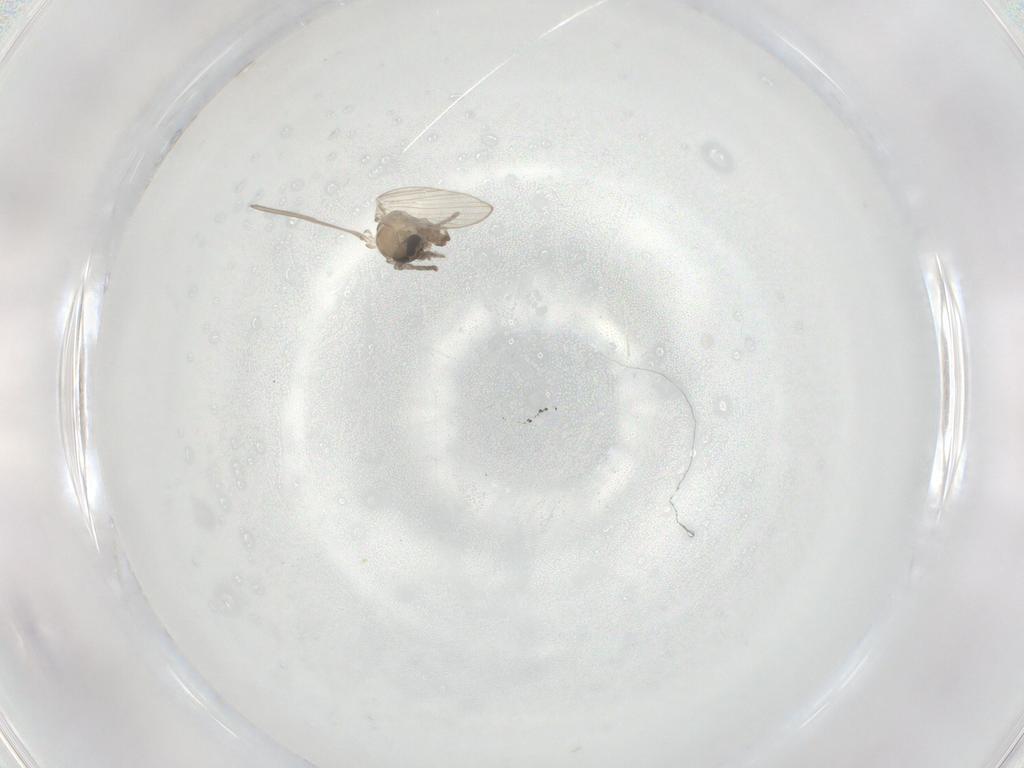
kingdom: Animalia
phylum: Arthropoda
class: Insecta
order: Diptera
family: Psychodidae
